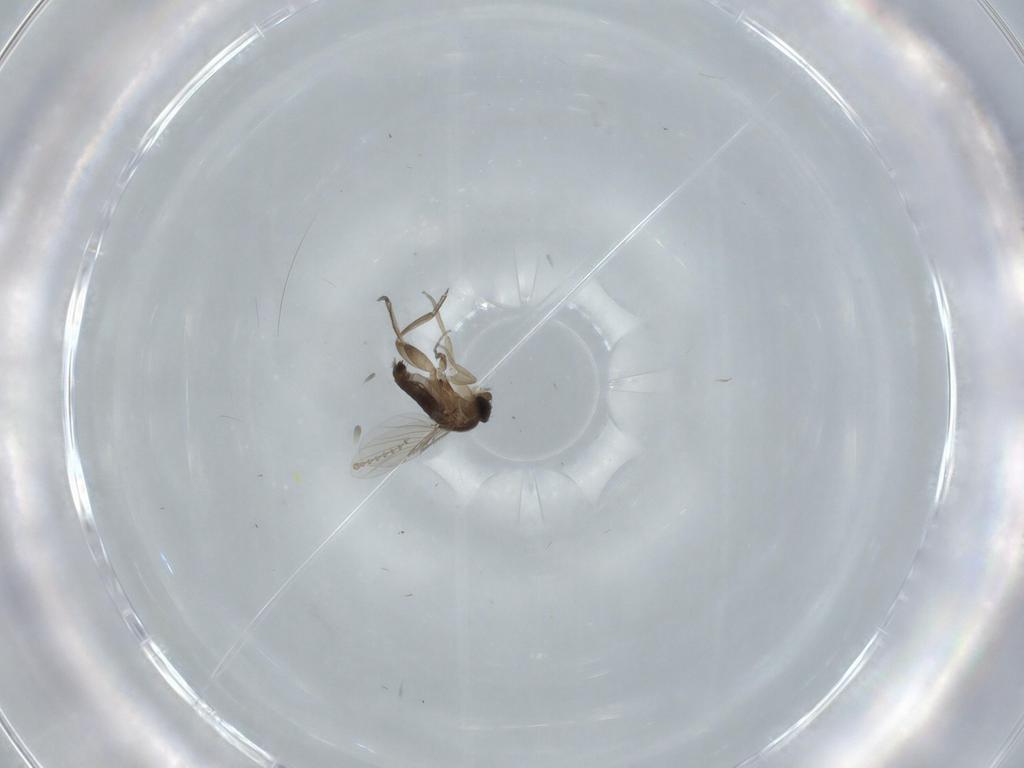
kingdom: Animalia
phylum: Arthropoda
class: Insecta
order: Diptera
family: Phoridae
